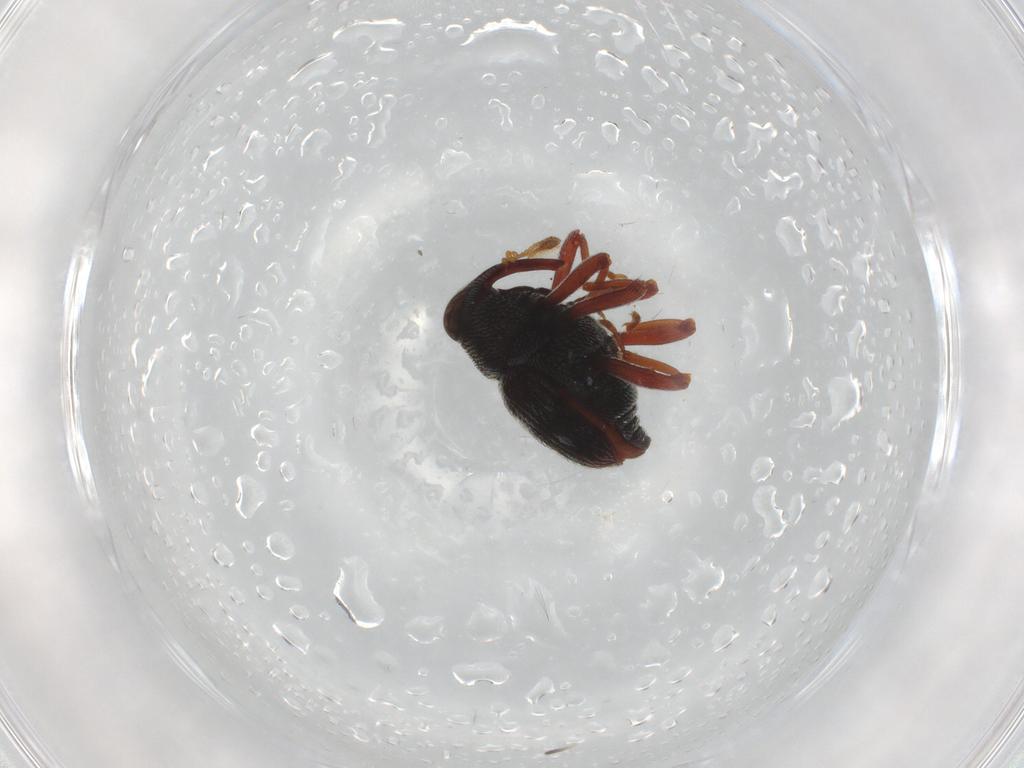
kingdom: Animalia
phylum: Arthropoda
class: Insecta
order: Coleoptera
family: Curculionidae
